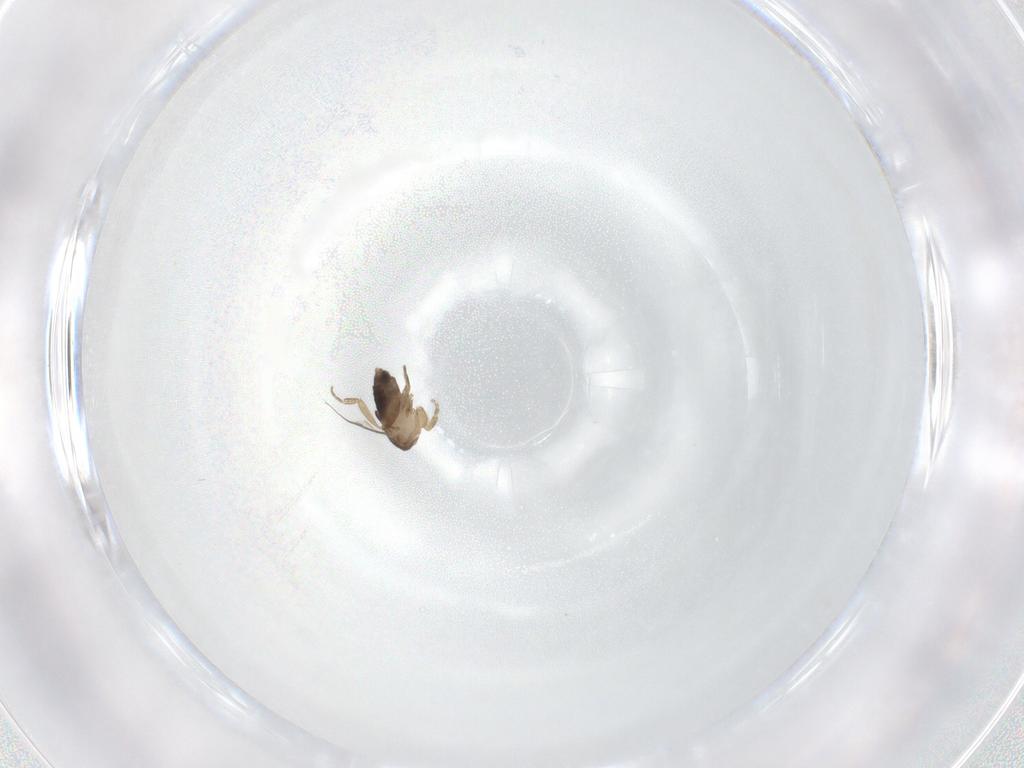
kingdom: Animalia
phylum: Arthropoda
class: Insecta
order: Diptera
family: Phoridae
